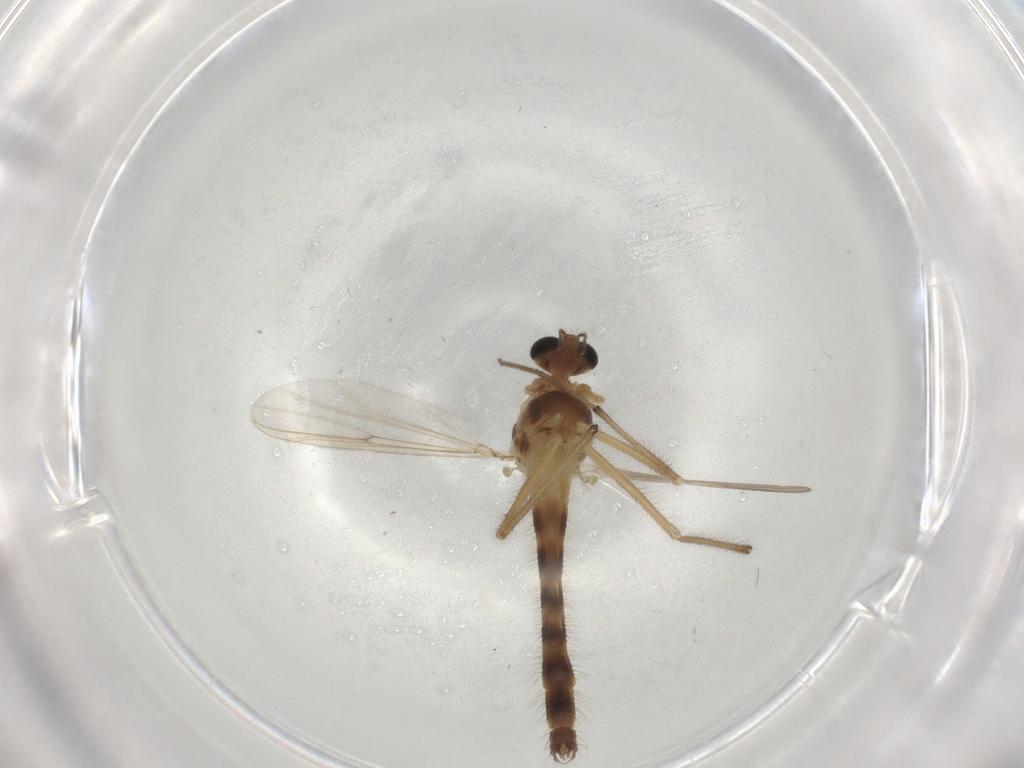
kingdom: Animalia
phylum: Arthropoda
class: Insecta
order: Diptera
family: Chironomidae
